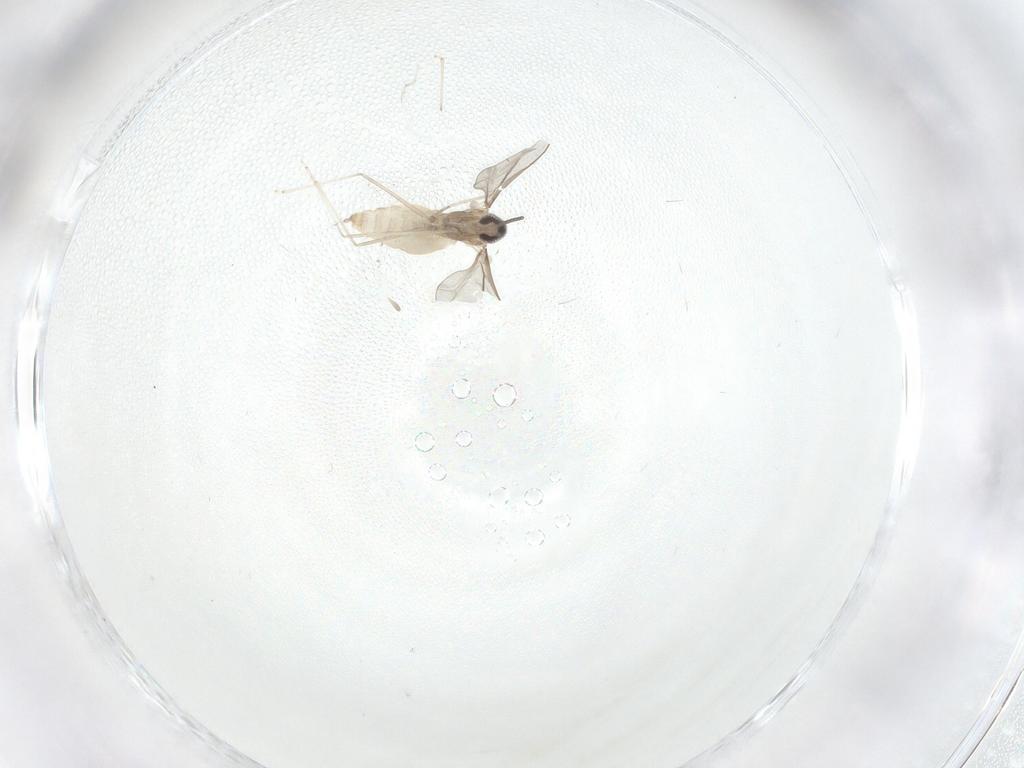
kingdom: Animalia
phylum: Arthropoda
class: Insecta
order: Diptera
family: Cecidomyiidae
